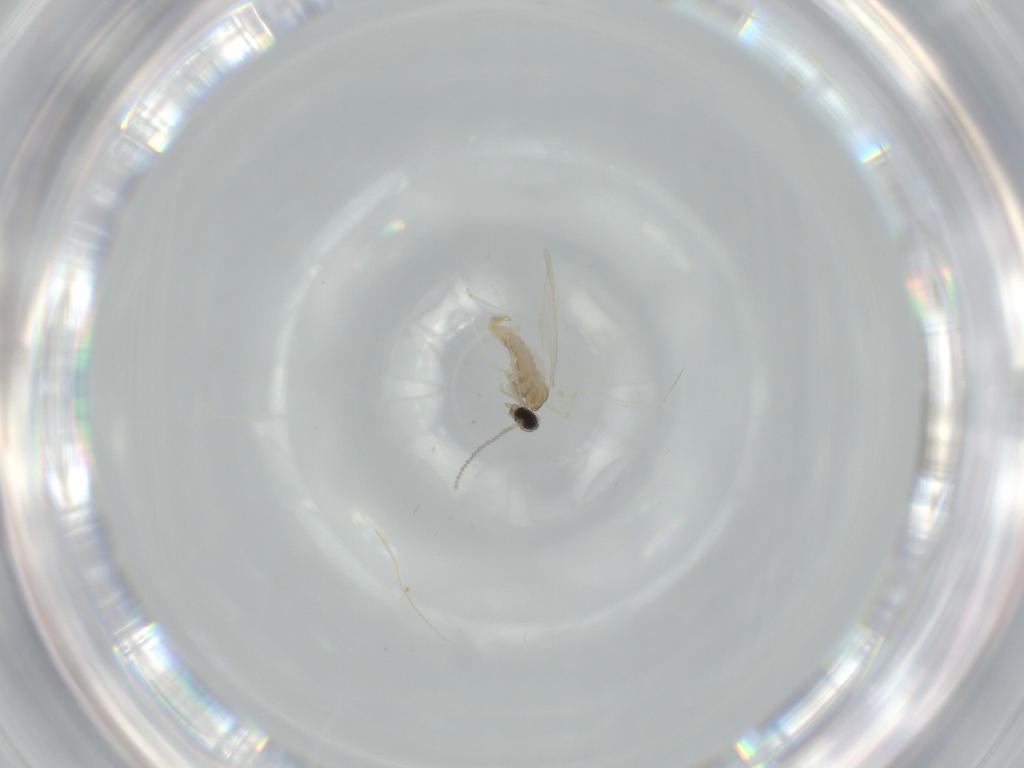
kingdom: Animalia
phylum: Arthropoda
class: Insecta
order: Diptera
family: Cecidomyiidae
